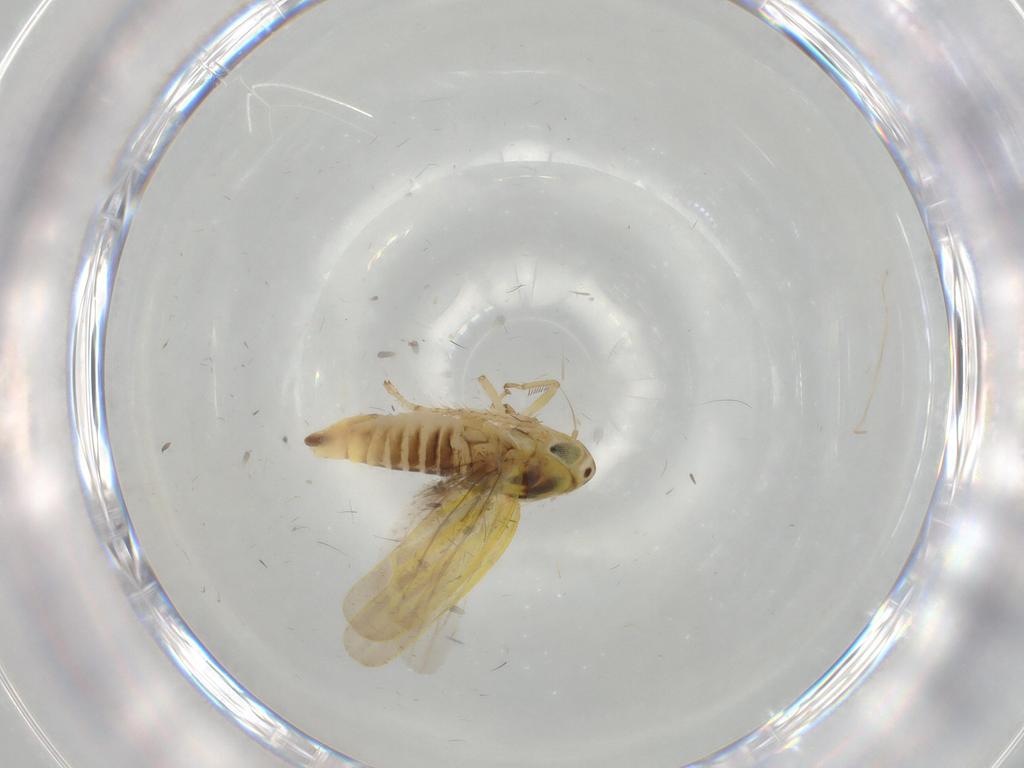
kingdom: Animalia
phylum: Arthropoda
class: Insecta
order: Hemiptera
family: Cicadellidae
